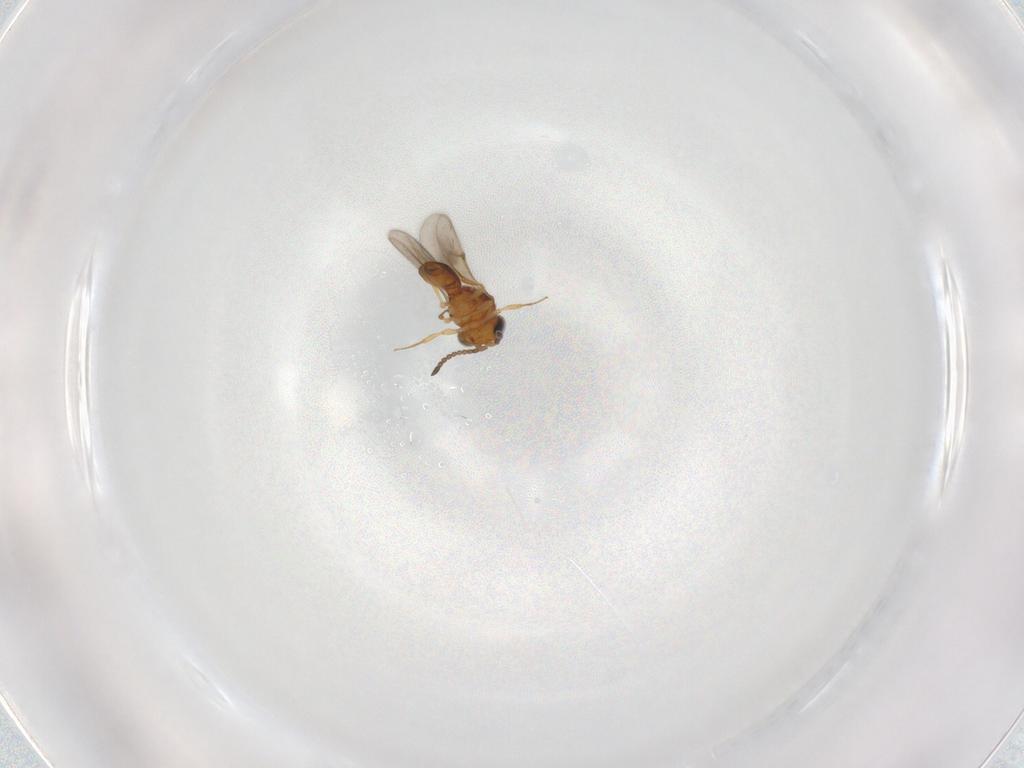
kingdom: Animalia
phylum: Arthropoda
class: Insecta
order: Hymenoptera
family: Scelionidae
